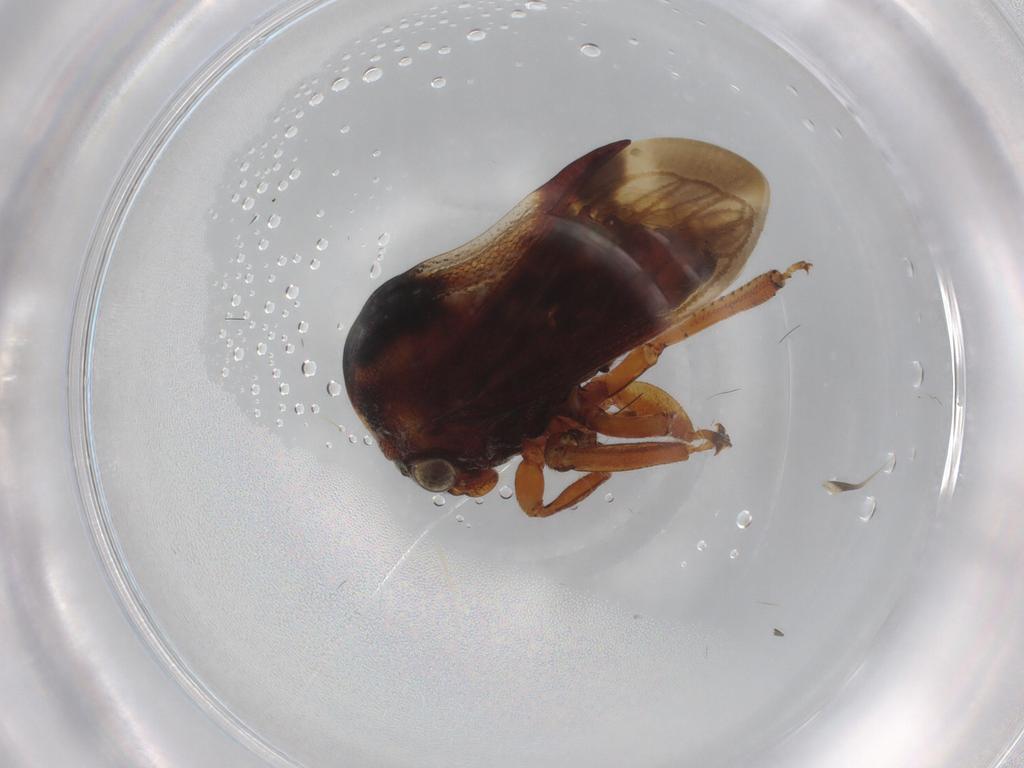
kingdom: Animalia
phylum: Arthropoda
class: Insecta
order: Hemiptera
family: Membracidae
